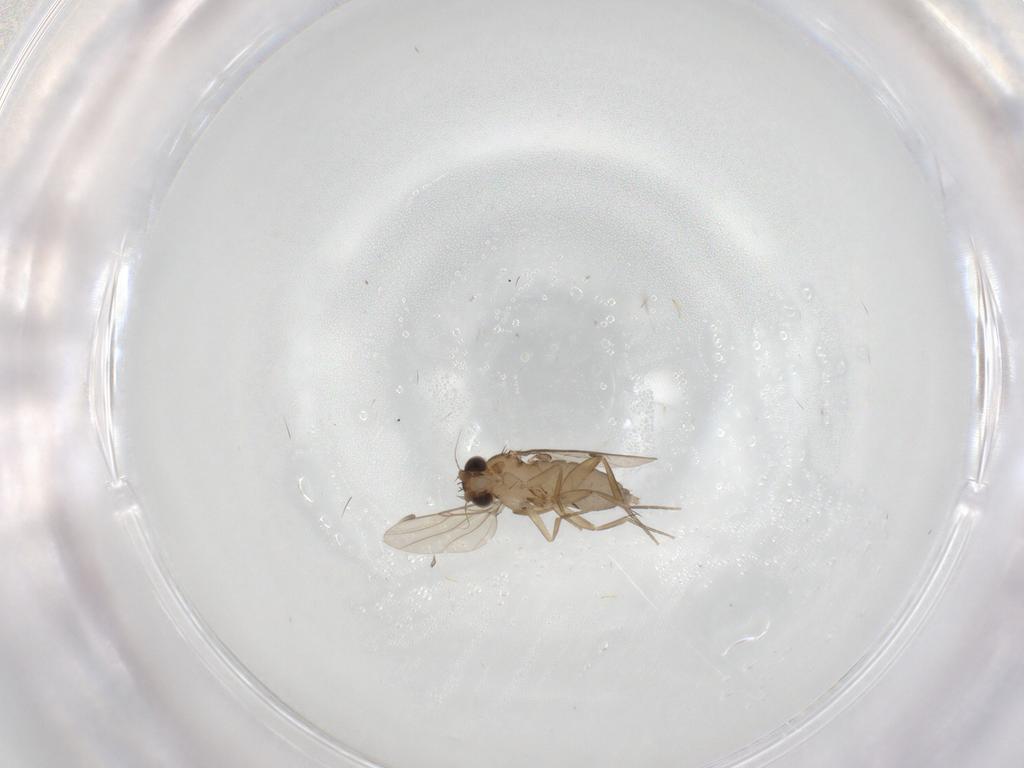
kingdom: Animalia
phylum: Arthropoda
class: Insecta
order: Diptera
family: Phoridae
